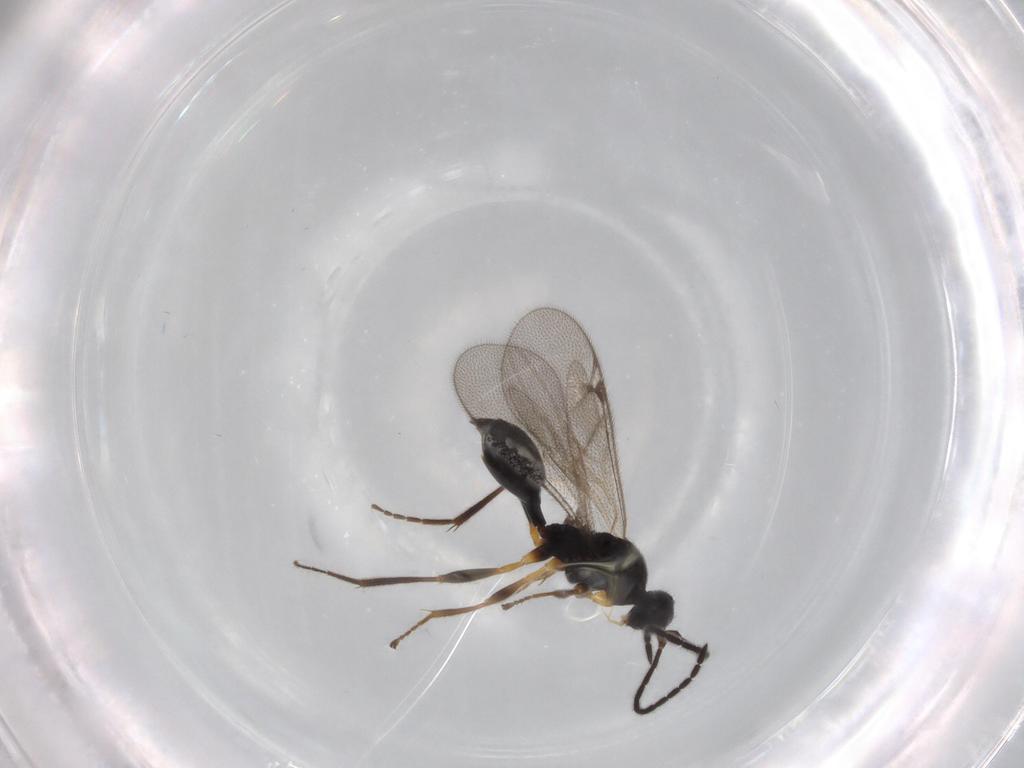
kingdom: Animalia
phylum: Arthropoda
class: Insecta
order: Hymenoptera
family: Proctotrupidae
